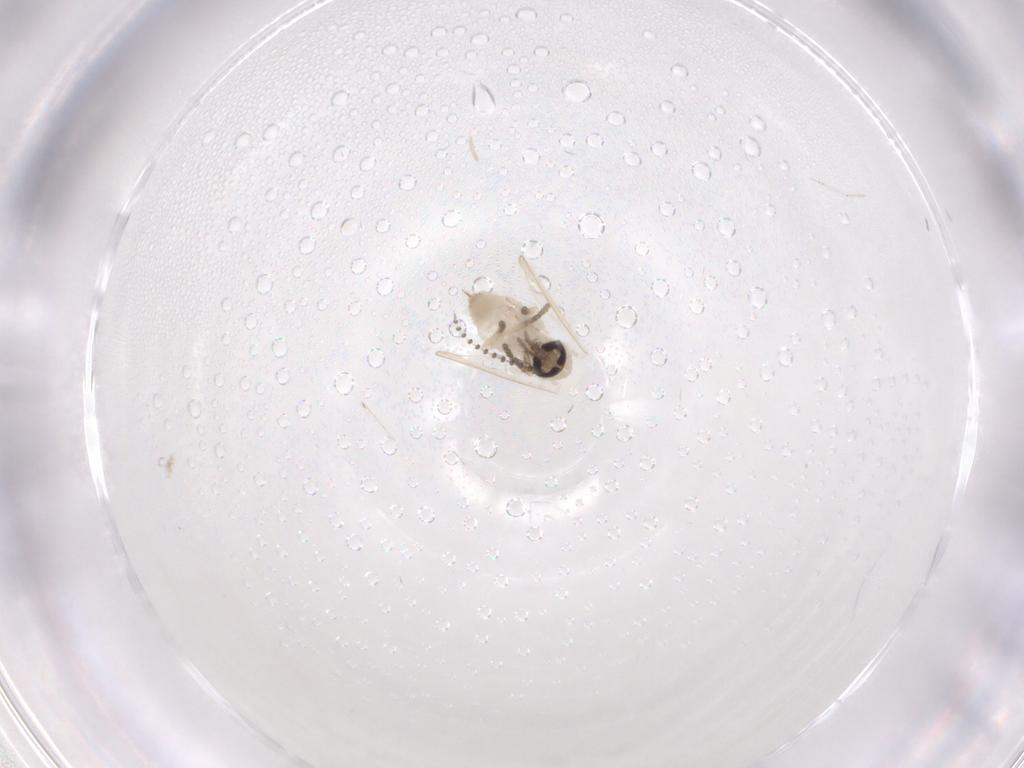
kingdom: Animalia
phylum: Arthropoda
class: Insecta
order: Diptera
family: Psychodidae
